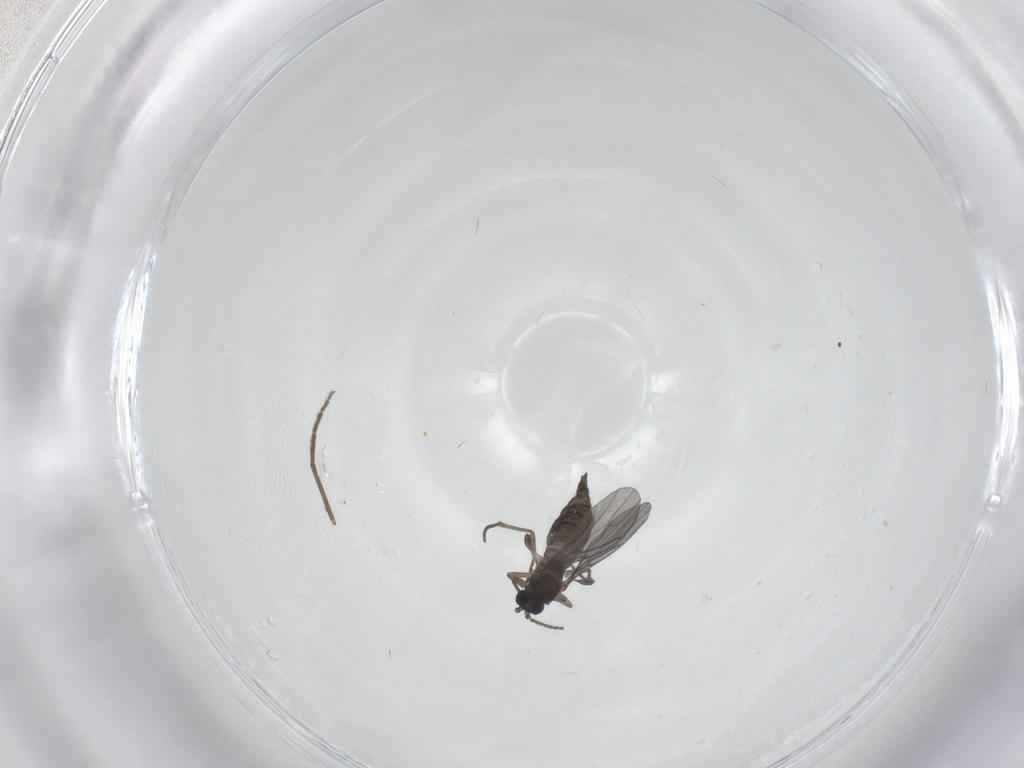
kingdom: Animalia
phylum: Arthropoda
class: Insecta
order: Diptera
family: Sciaridae
